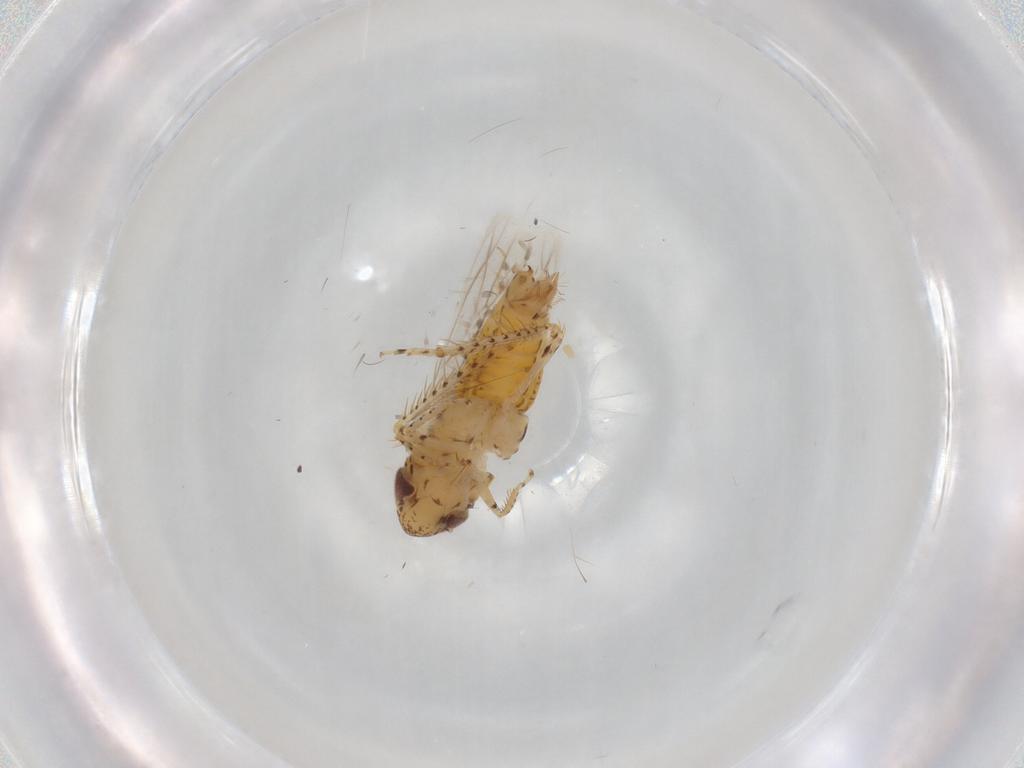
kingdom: Animalia
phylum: Arthropoda
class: Insecta
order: Hemiptera
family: Cicadellidae
